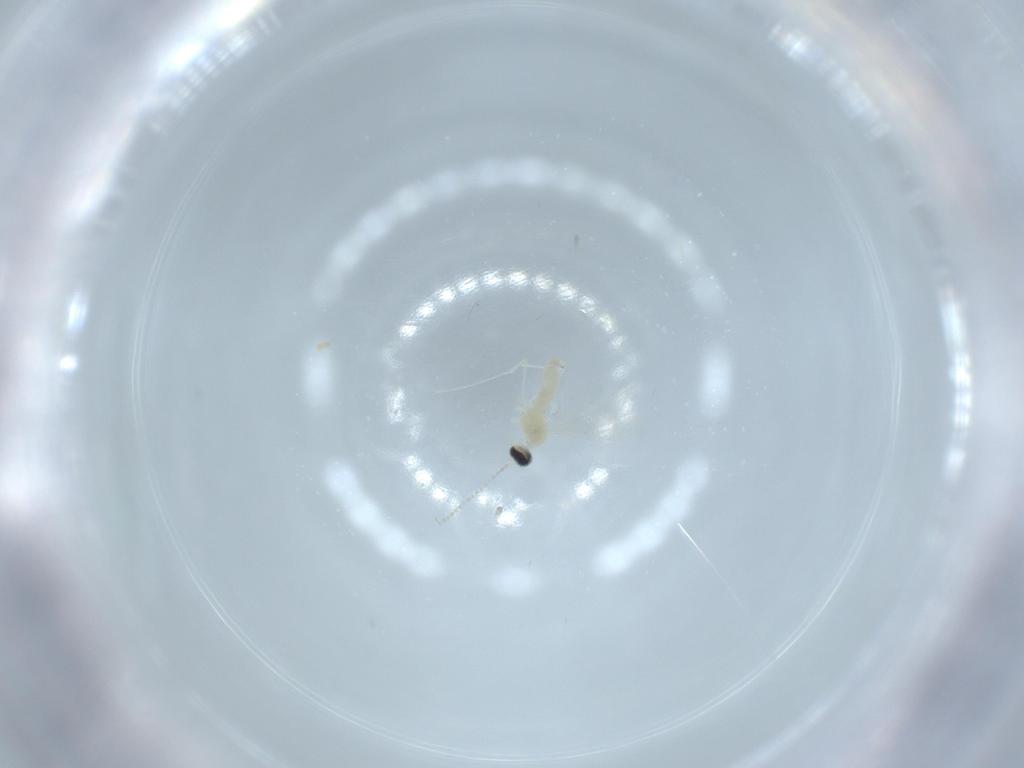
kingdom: Animalia
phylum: Arthropoda
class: Insecta
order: Diptera
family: Cecidomyiidae
